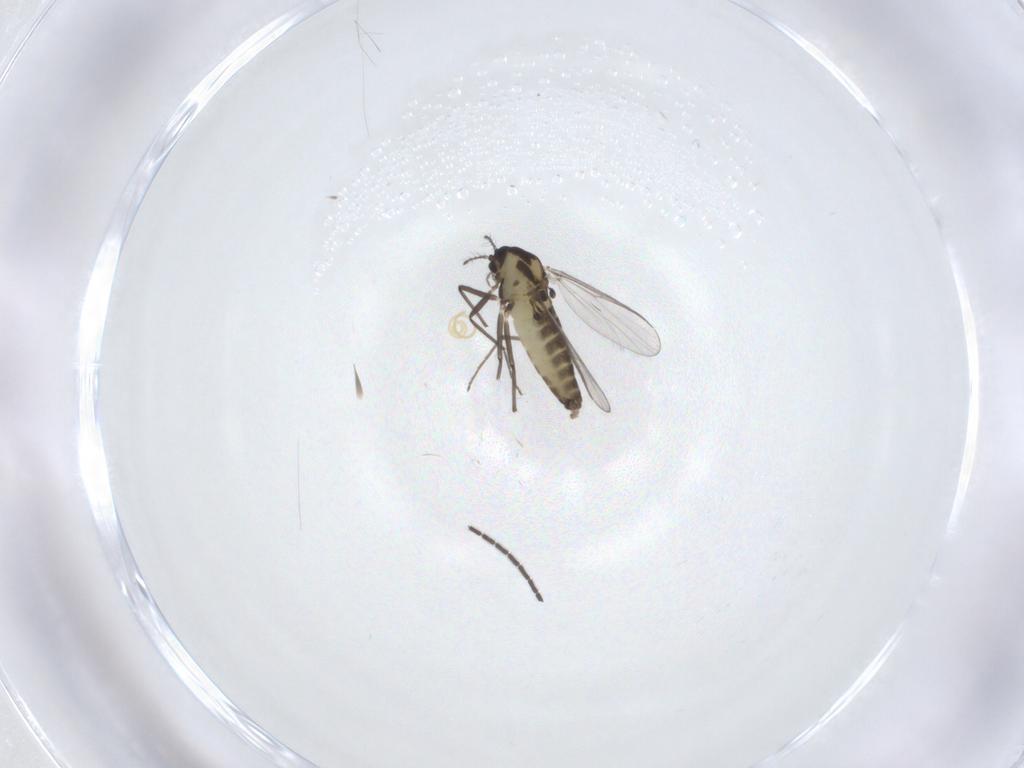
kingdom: Animalia
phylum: Arthropoda
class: Insecta
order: Diptera
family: Chironomidae
